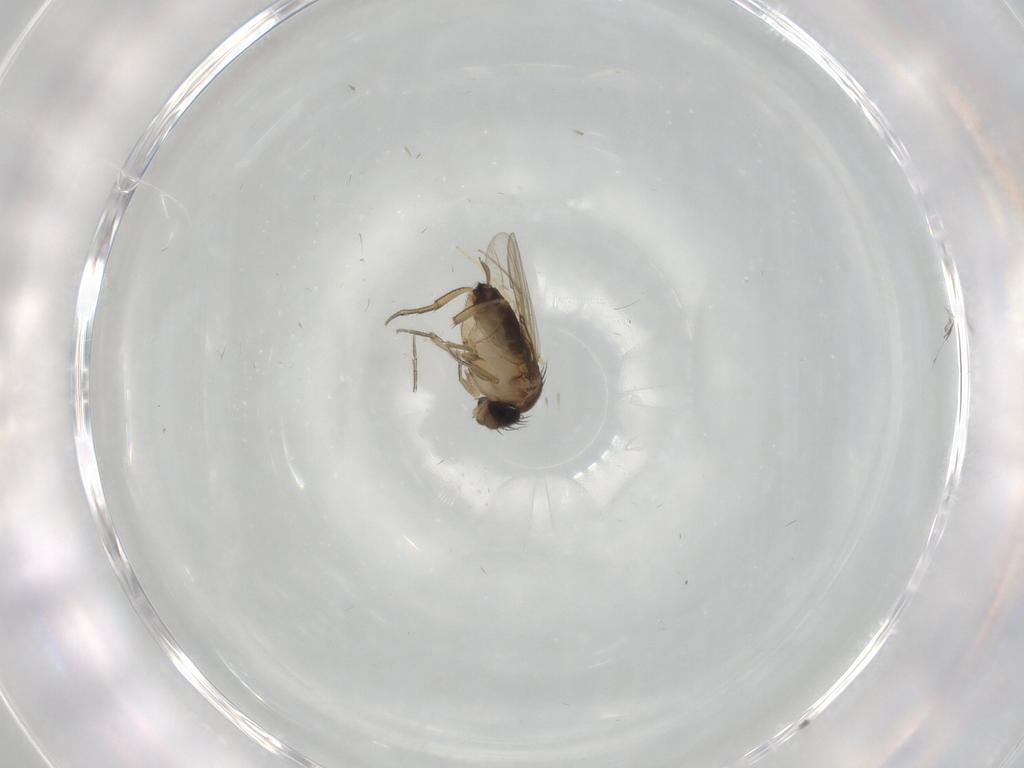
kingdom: Animalia
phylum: Arthropoda
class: Insecta
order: Diptera
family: Chironomidae
